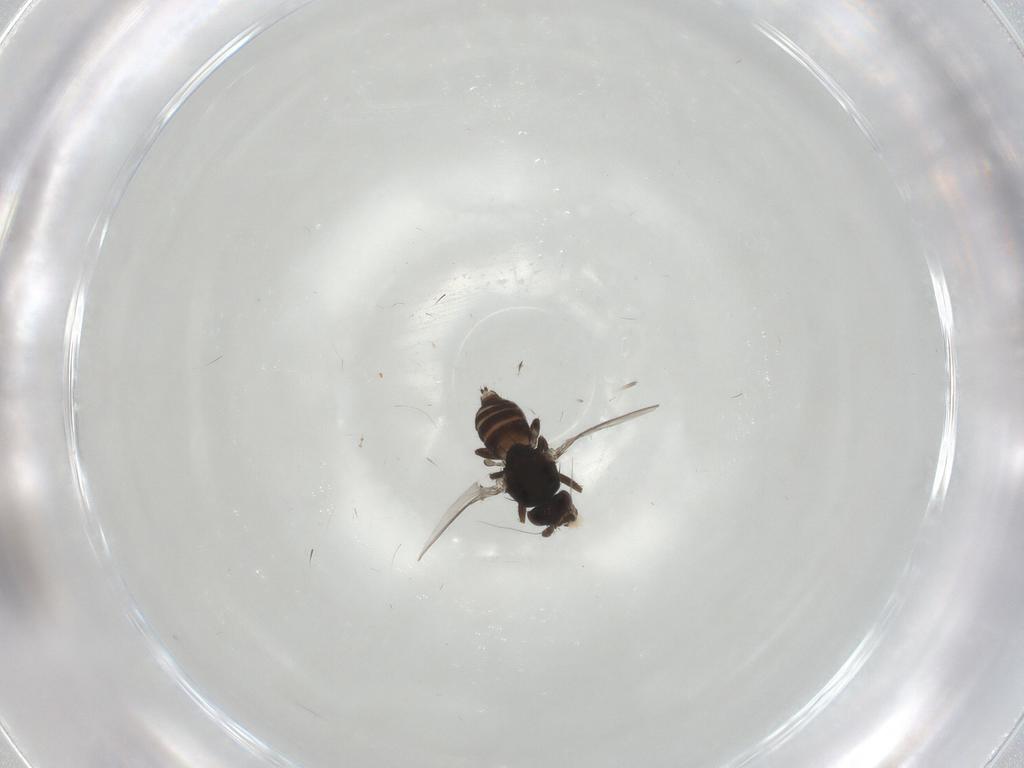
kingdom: Animalia
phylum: Arthropoda
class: Insecta
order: Diptera
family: Sphaeroceridae
